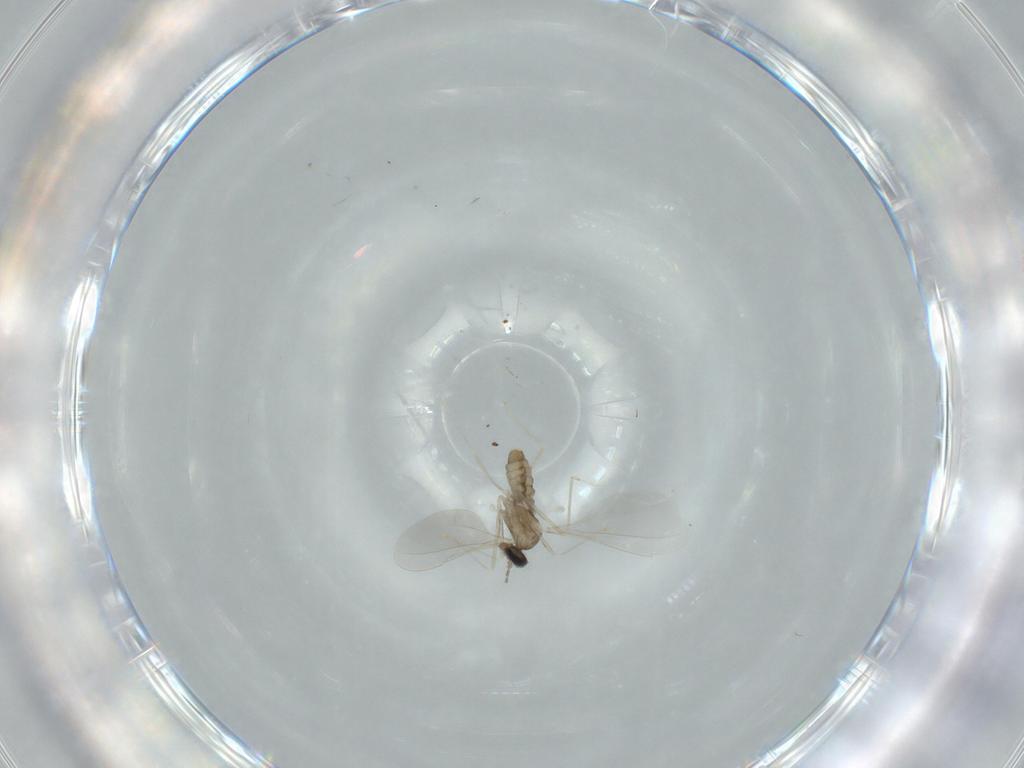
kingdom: Animalia
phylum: Arthropoda
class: Insecta
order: Diptera
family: Cecidomyiidae
